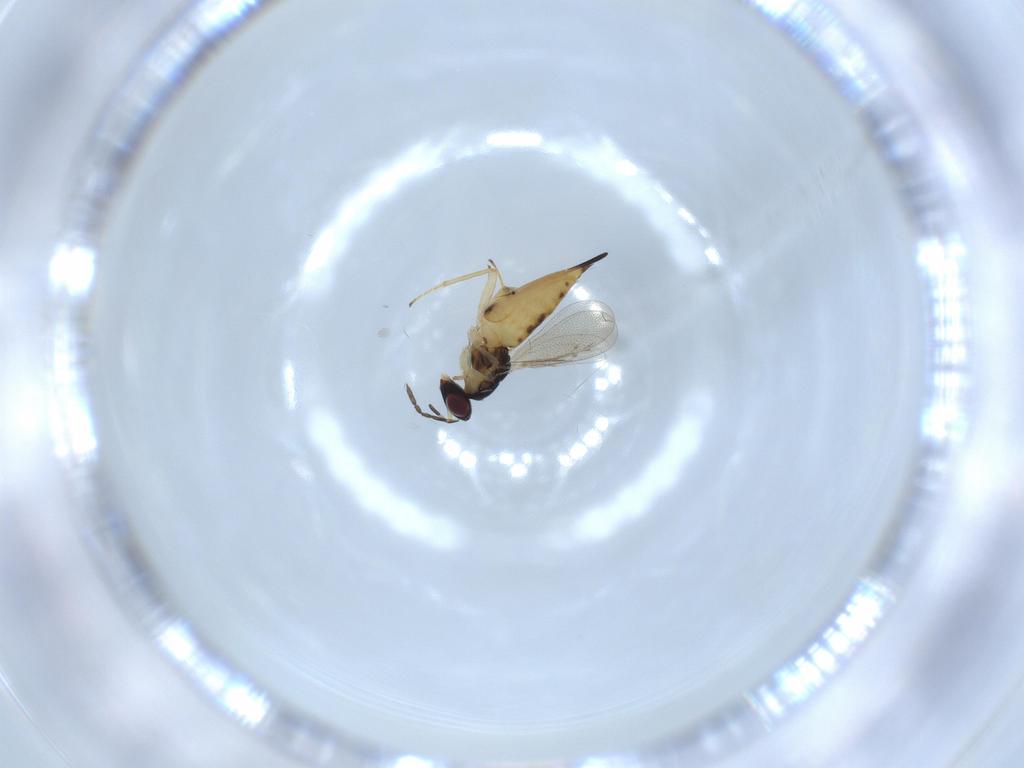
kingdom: Animalia
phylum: Arthropoda
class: Insecta
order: Hymenoptera
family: Eulophidae
